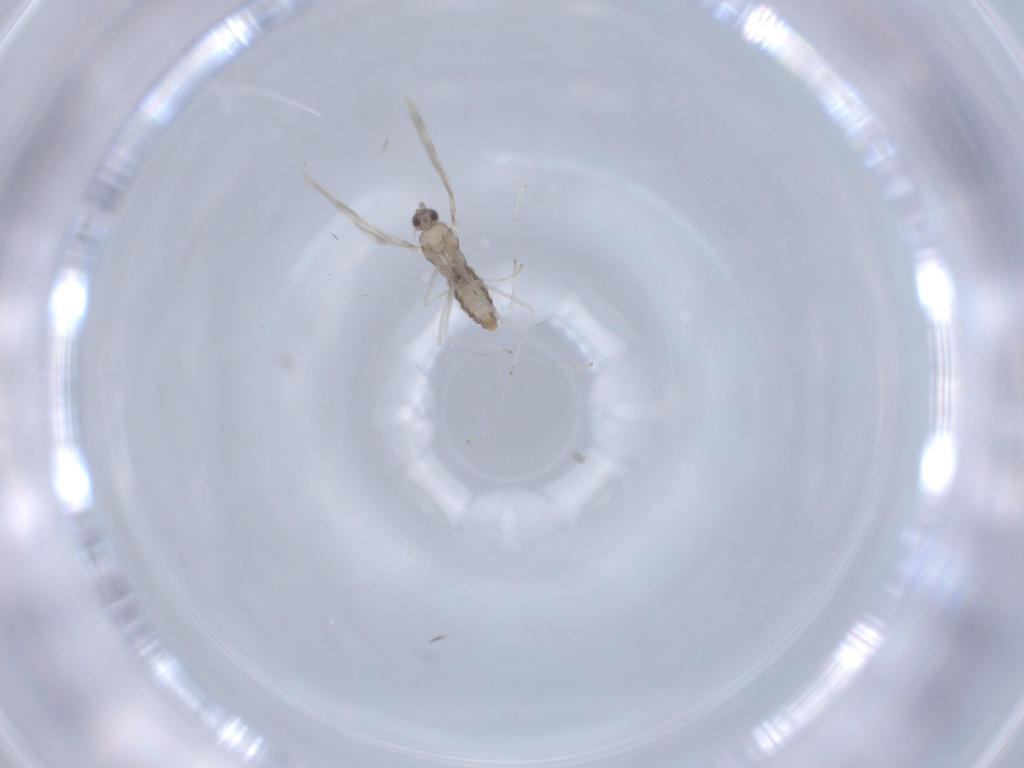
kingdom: Animalia
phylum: Arthropoda
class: Insecta
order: Diptera
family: Cecidomyiidae
